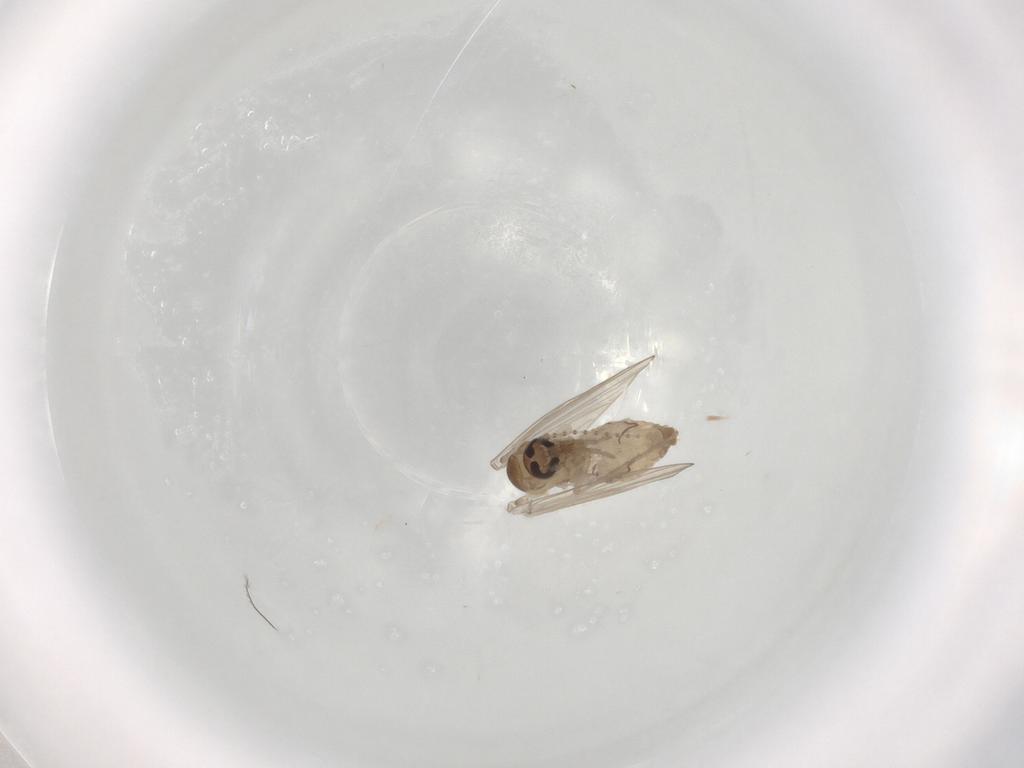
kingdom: Animalia
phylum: Arthropoda
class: Insecta
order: Diptera
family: Psychodidae
